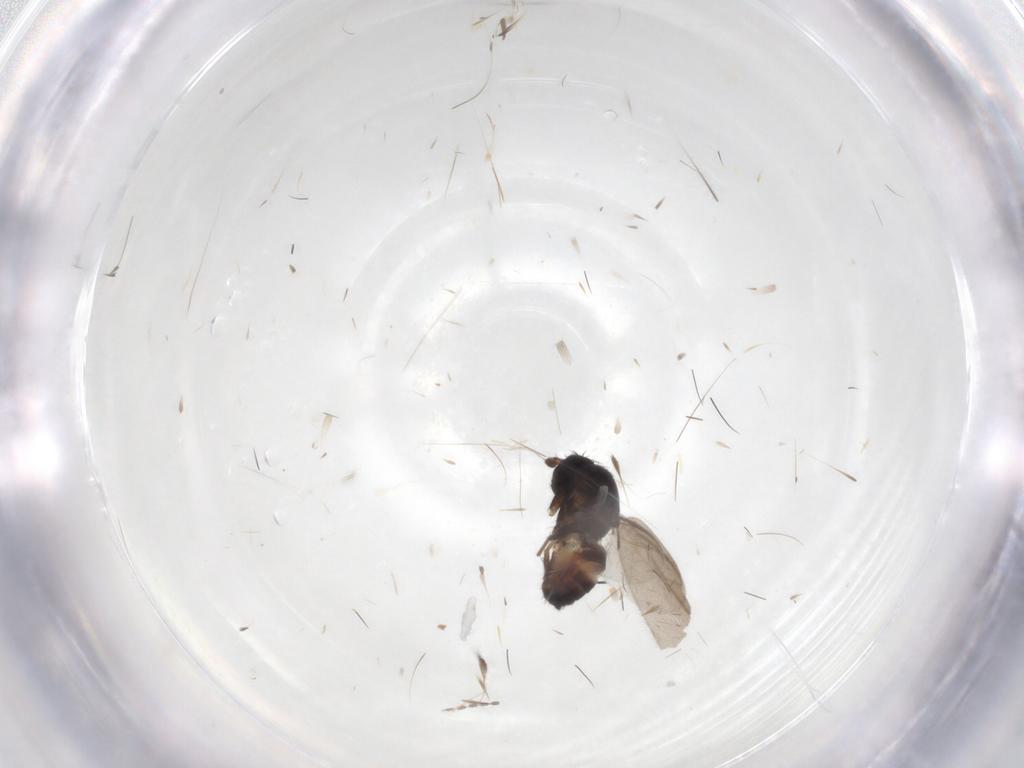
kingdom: Animalia
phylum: Arthropoda
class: Insecta
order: Diptera
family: Sphaeroceridae
